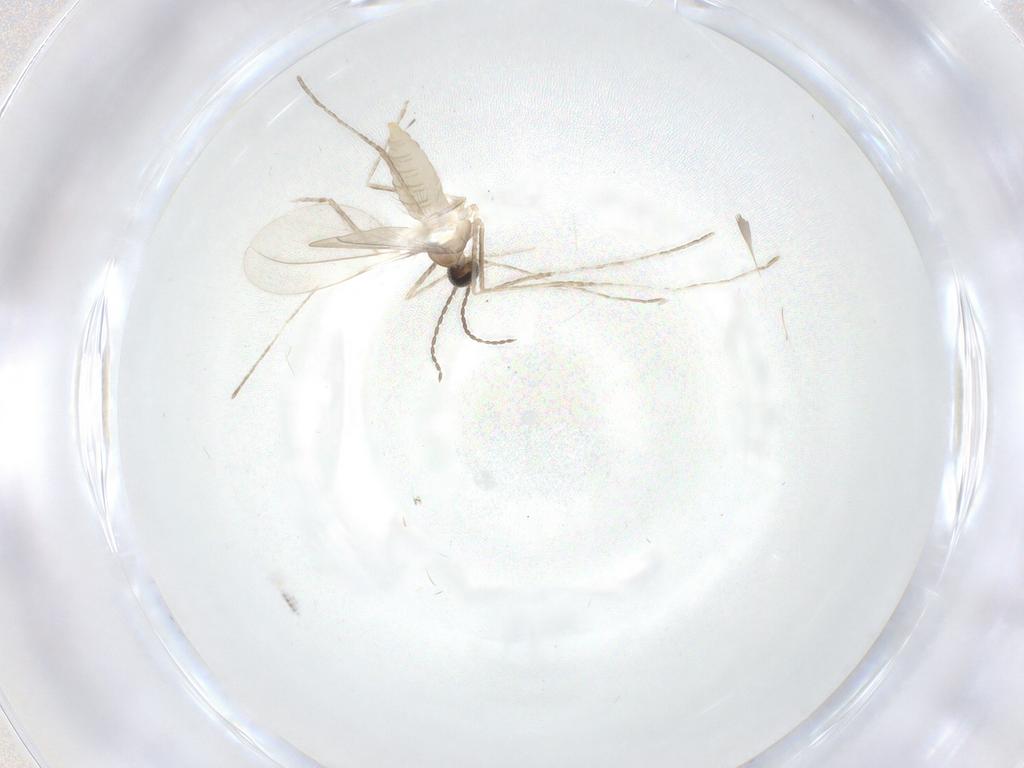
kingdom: Animalia
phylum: Arthropoda
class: Insecta
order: Diptera
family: Cecidomyiidae
